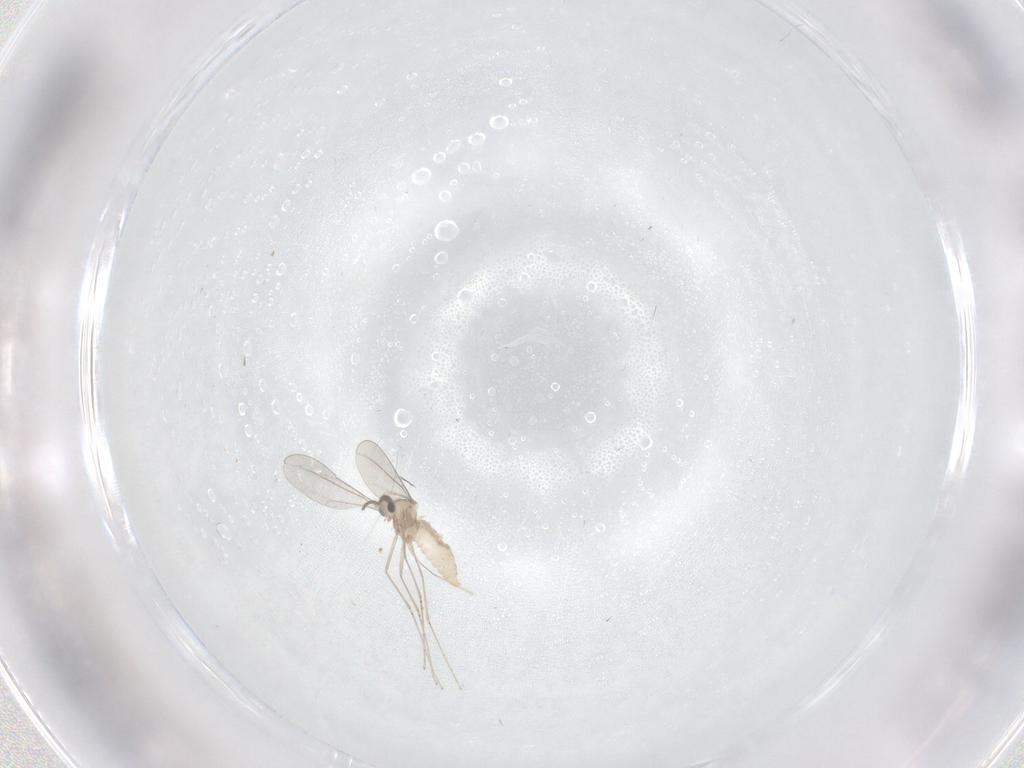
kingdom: Animalia
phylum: Arthropoda
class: Insecta
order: Diptera
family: Cecidomyiidae
